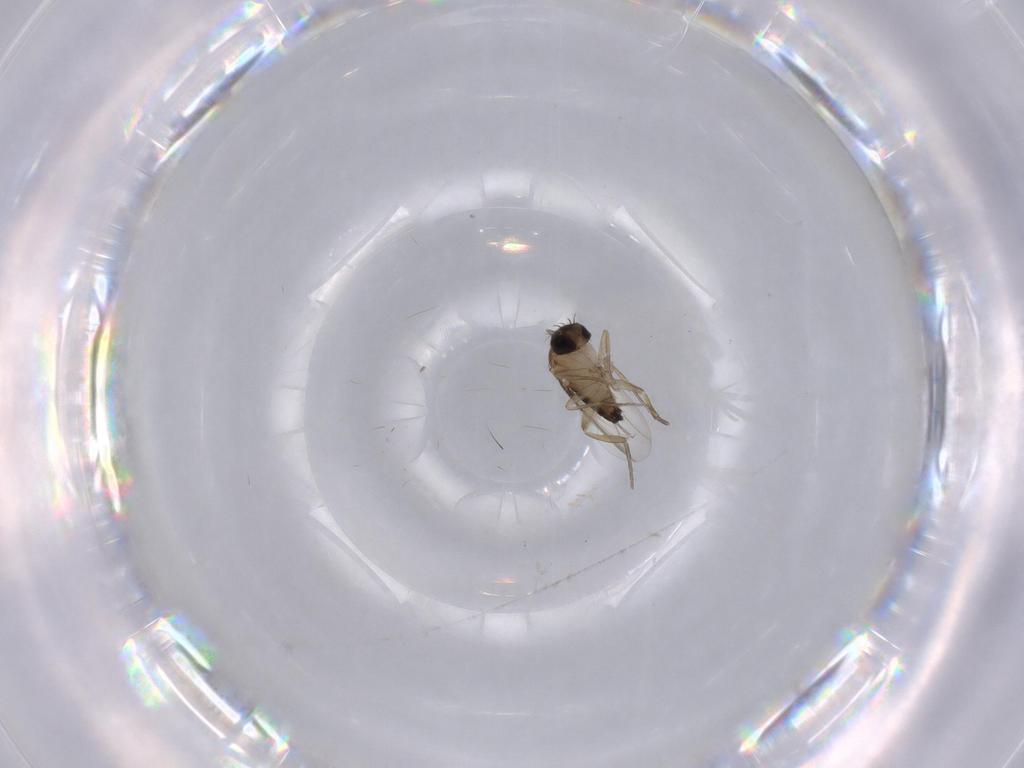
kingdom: Animalia
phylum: Arthropoda
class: Insecta
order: Diptera
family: Phoridae
